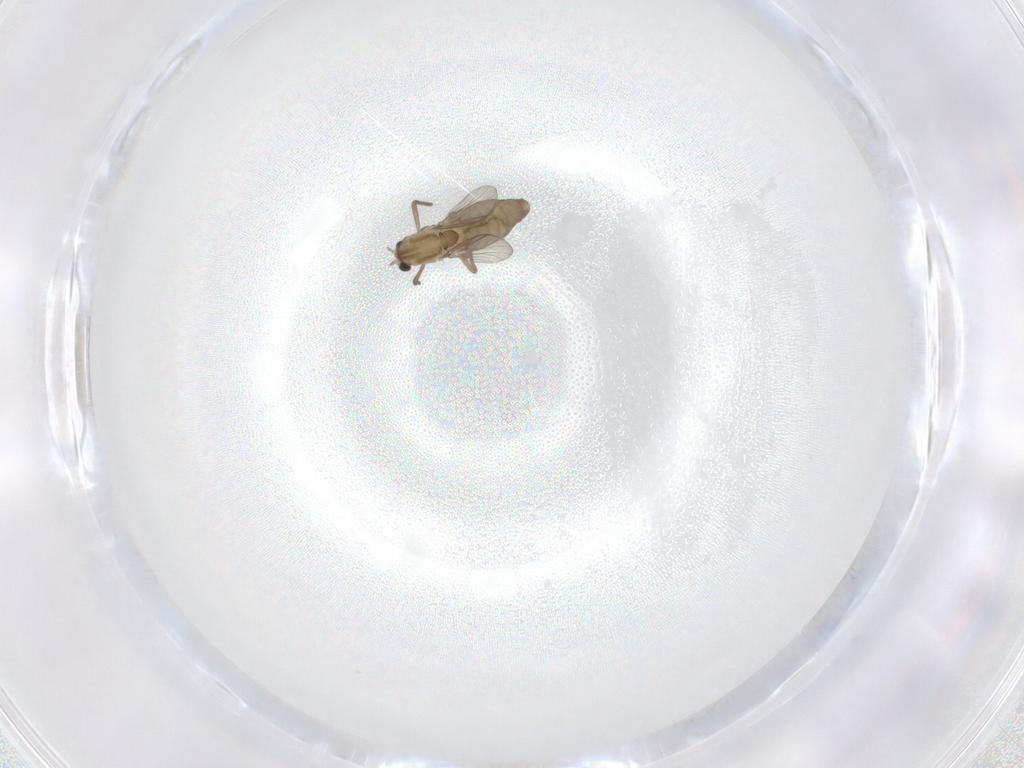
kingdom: Animalia
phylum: Arthropoda
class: Insecta
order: Diptera
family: Chironomidae
